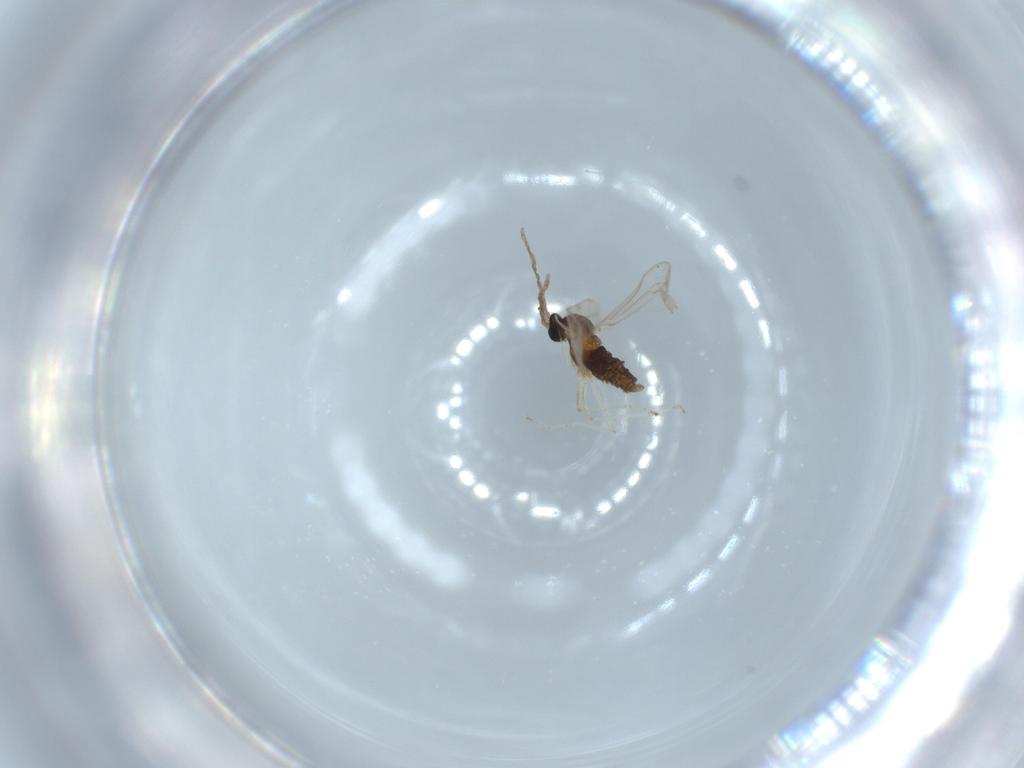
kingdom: Animalia
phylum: Arthropoda
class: Insecta
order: Diptera
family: Cecidomyiidae
